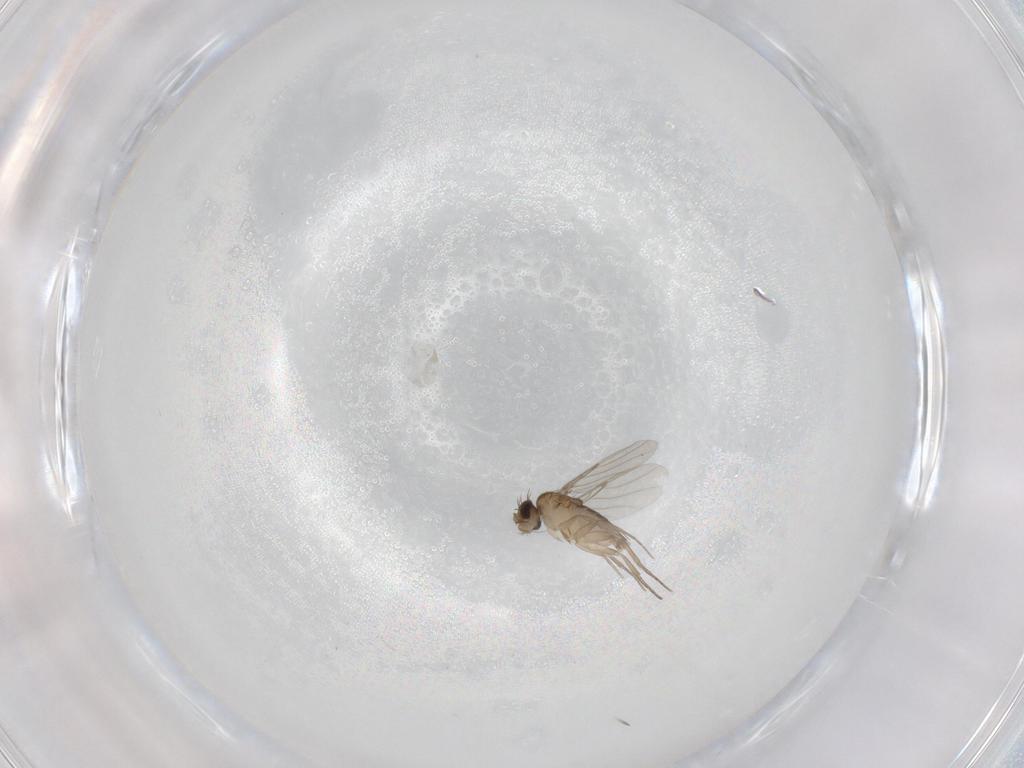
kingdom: Animalia
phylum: Arthropoda
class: Insecta
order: Diptera
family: Phoridae
